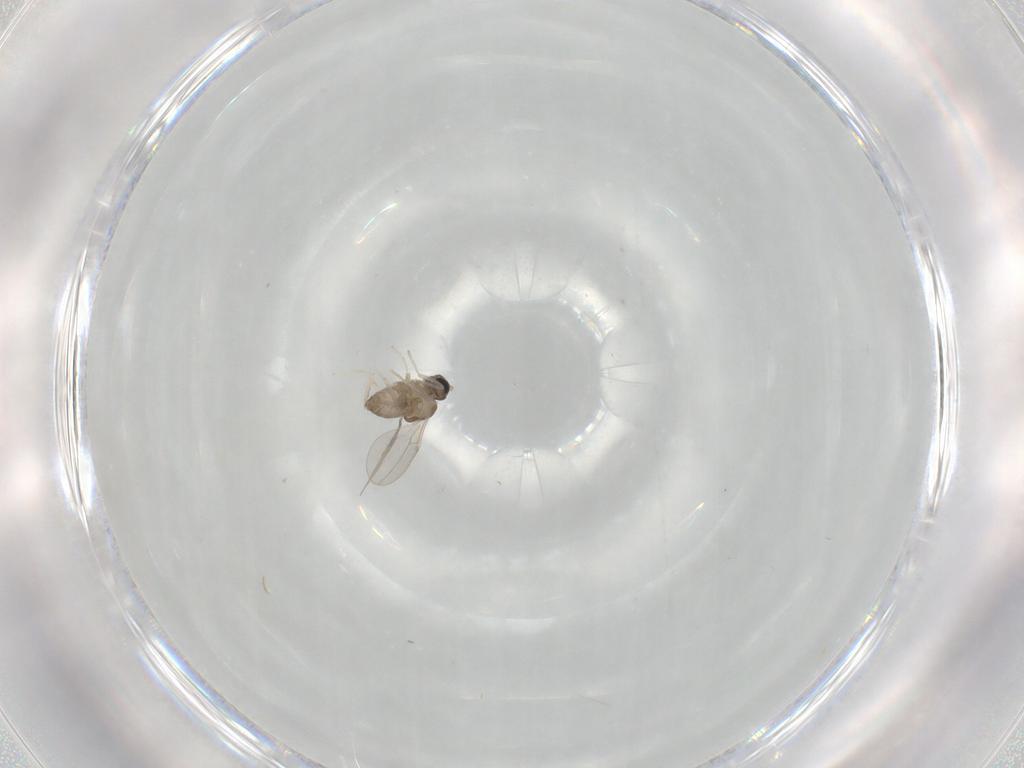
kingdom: Animalia
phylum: Arthropoda
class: Insecta
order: Diptera
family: Cecidomyiidae
